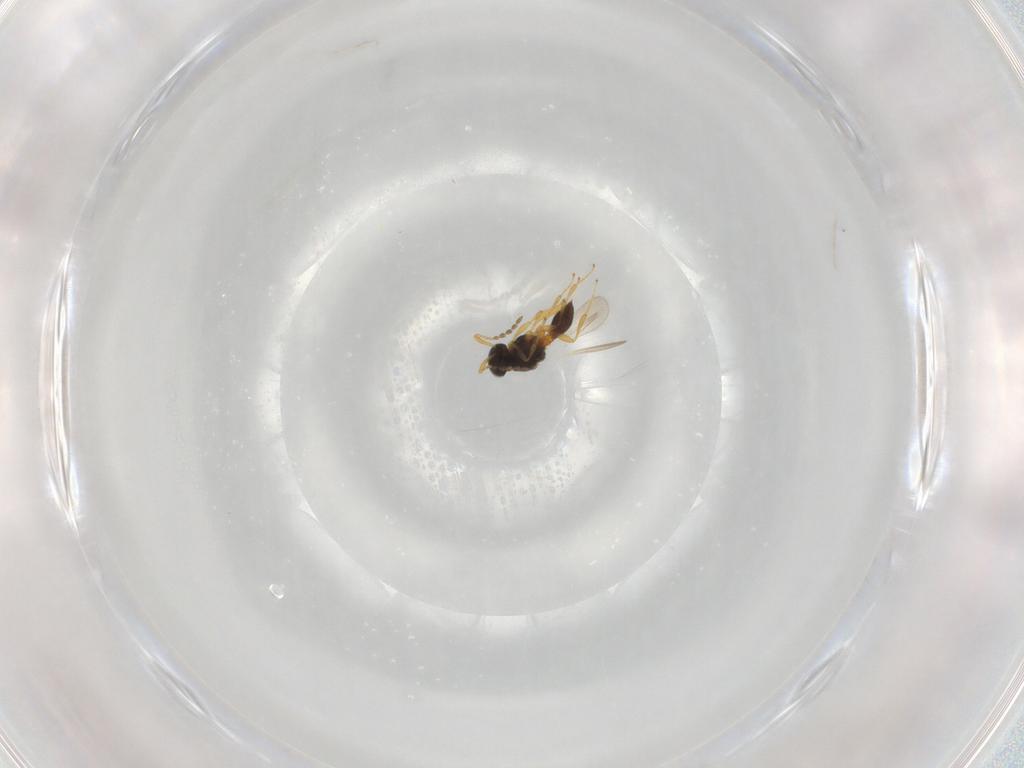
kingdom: Animalia
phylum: Arthropoda
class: Insecta
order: Hymenoptera
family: Platygastridae
